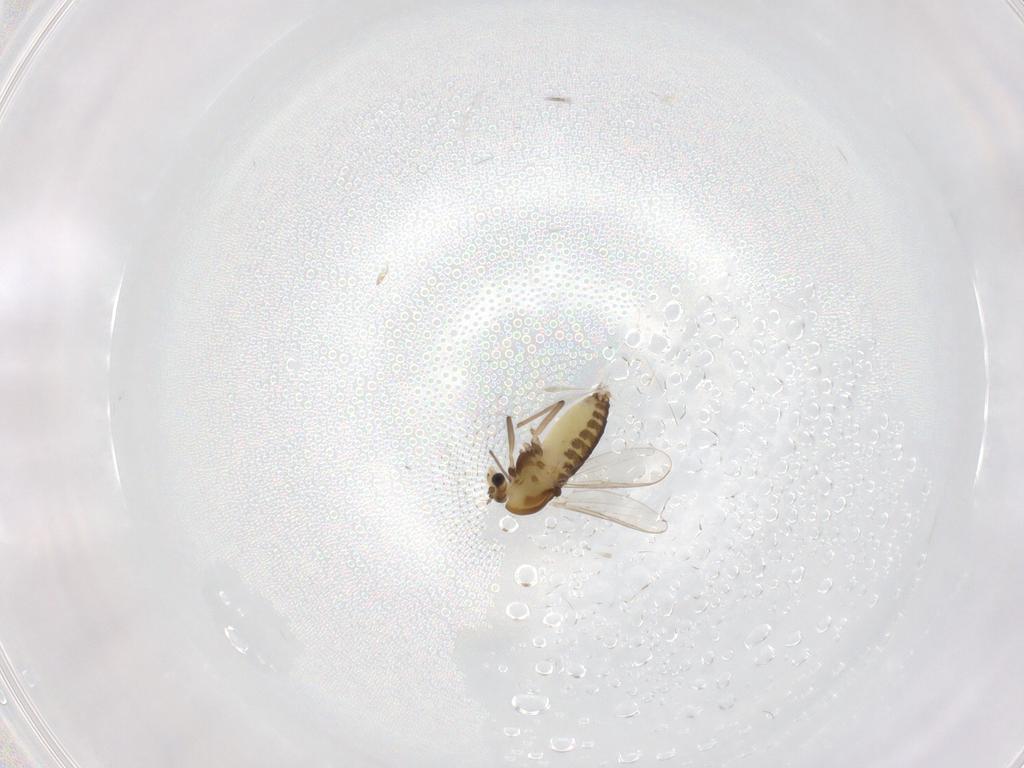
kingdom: Animalia
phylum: Arthropoda
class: Insecta
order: Diptera
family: Chironomidae
